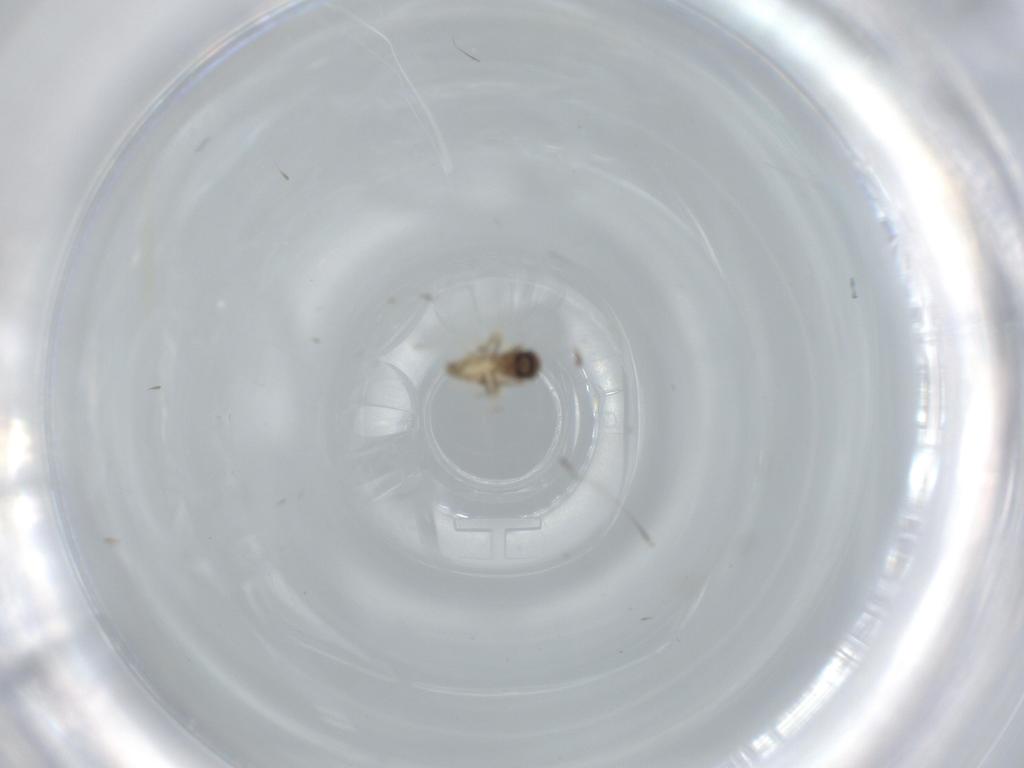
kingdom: Animalia
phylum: Arthropoda
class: Insecta
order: Diptera
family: Ceratopogonidae
